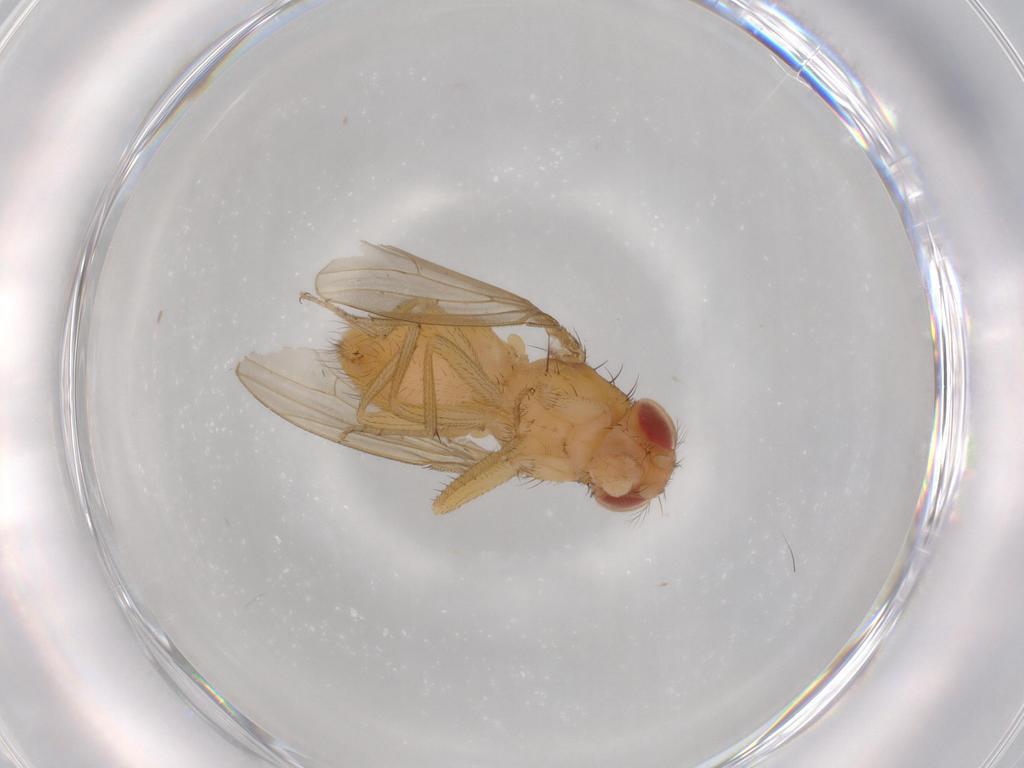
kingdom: Animalia
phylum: Arthropoda
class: Insecta
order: Diptera
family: Drosophilidae
